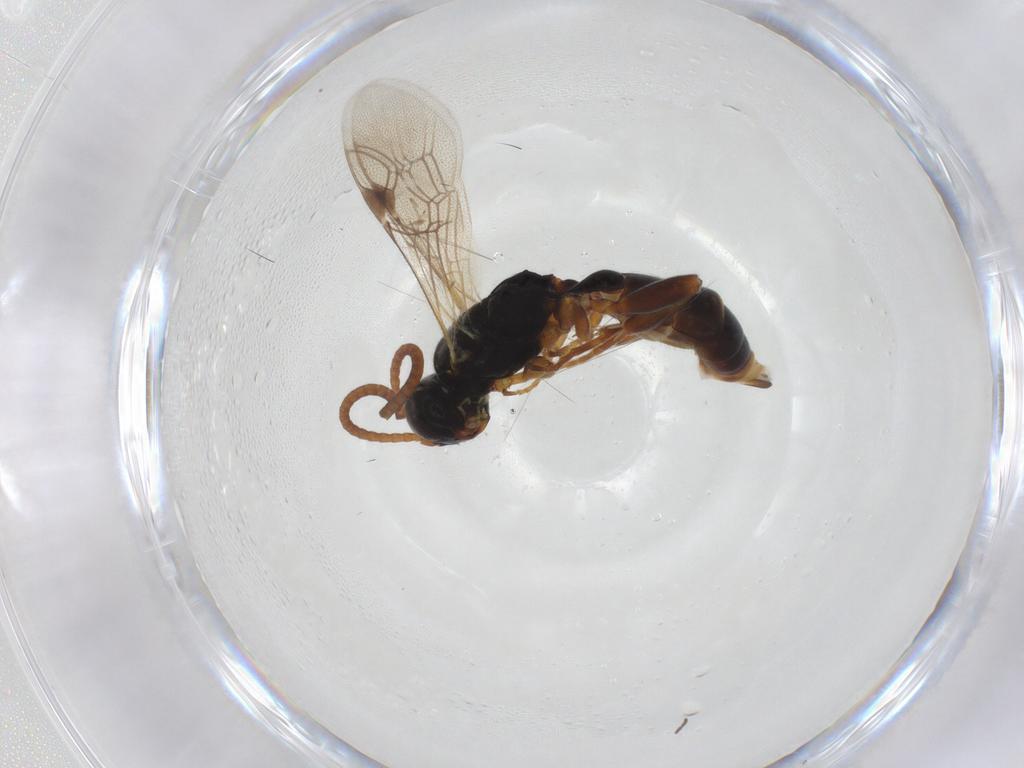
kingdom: Animalia
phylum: Arthropoda
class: Insecta
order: Hymenoptera
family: Ichneumonidae
